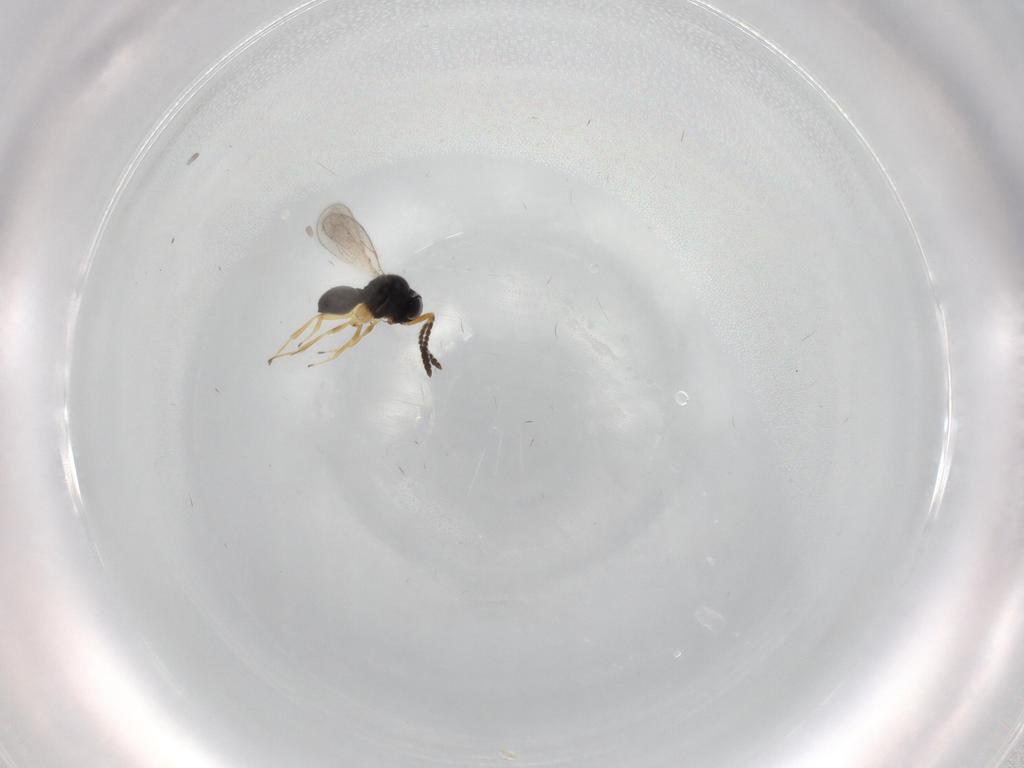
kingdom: Animalia
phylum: Arthropoda
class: Insecta
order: Hymenoptera
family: Scelionidae
